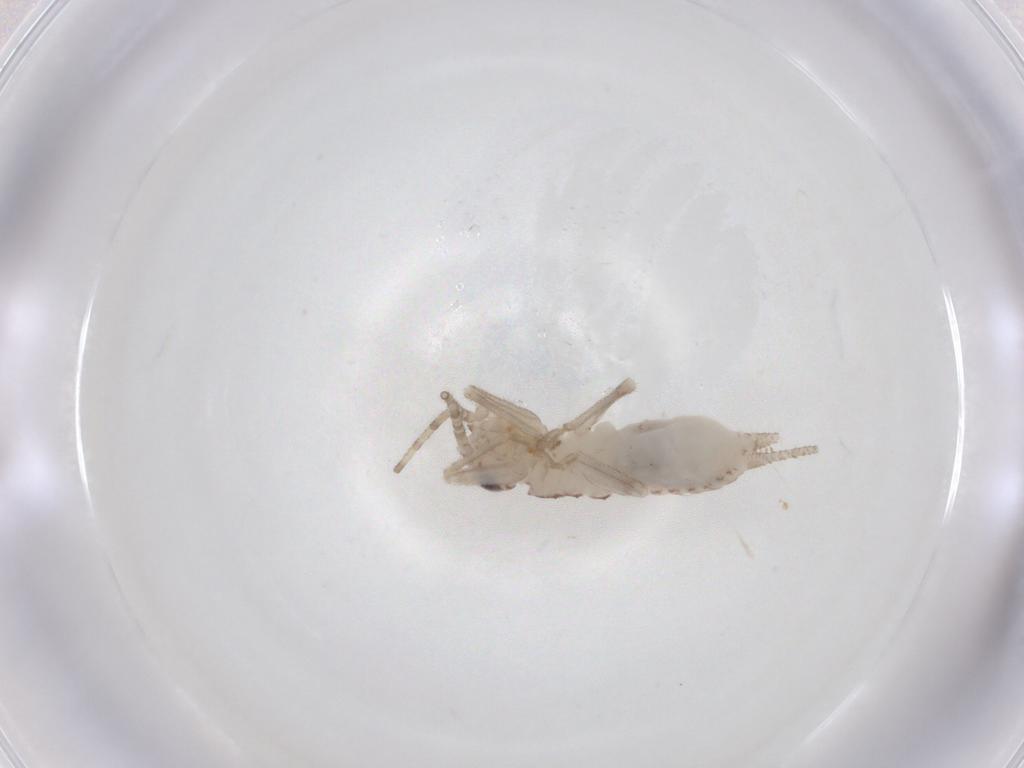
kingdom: Animalia
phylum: Arthropoda
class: Insecta
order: Orthoptera
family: Trigonidiidae
